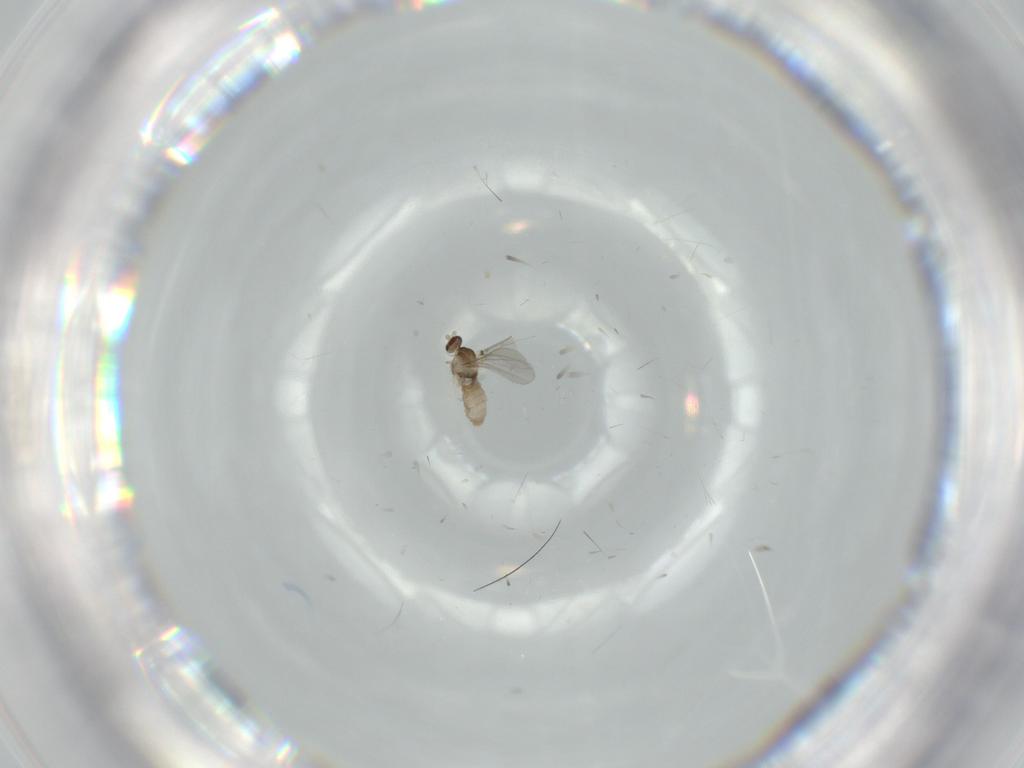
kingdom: Animalia
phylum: Arthropoda
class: Insecta
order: Diptera
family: Cecidomyiidae
